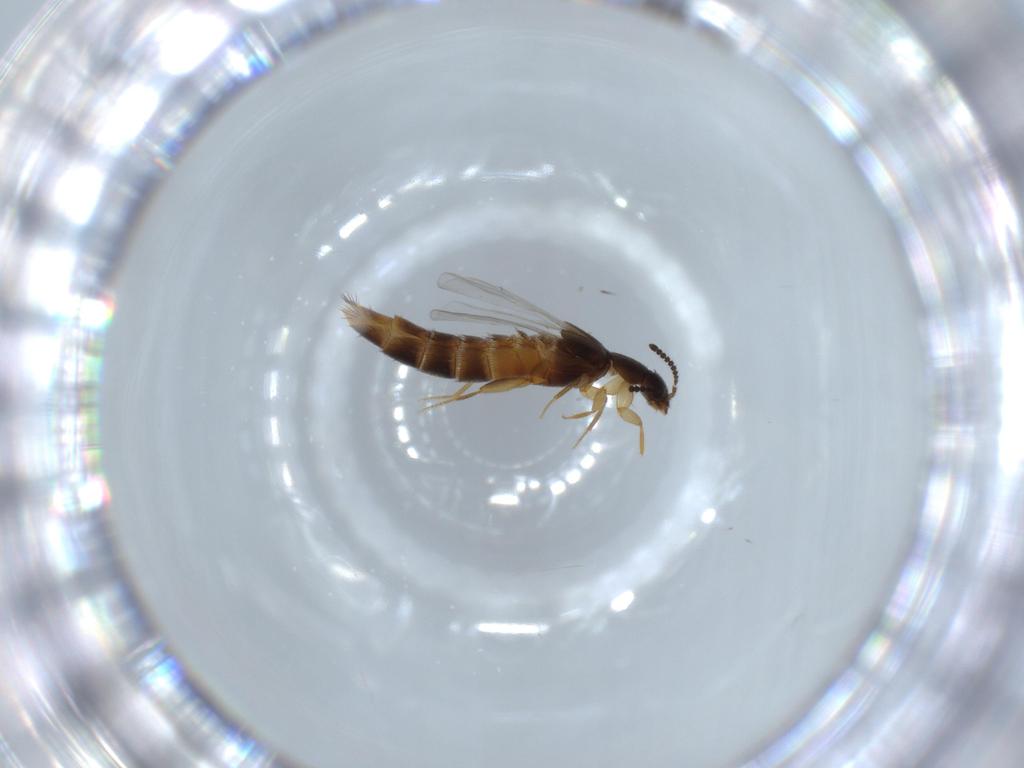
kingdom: Animalia
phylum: Arthropoda
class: Insecta
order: Coleoptera
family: Staphylinidae
